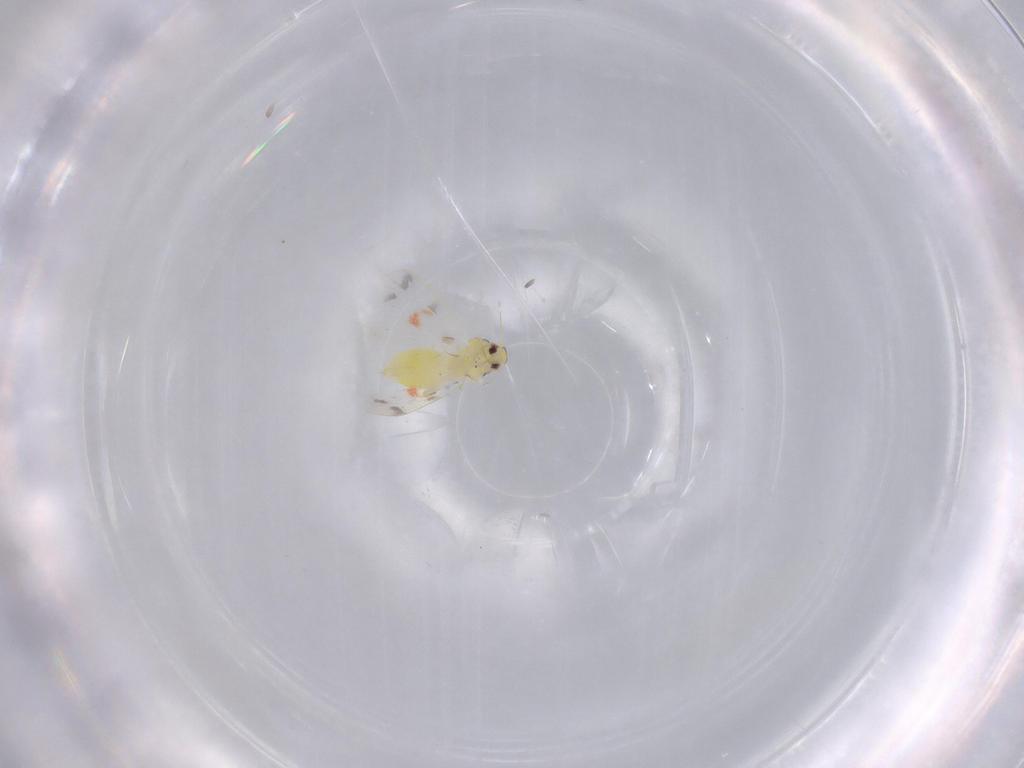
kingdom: Animalia
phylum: Arthropoda
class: Insecta
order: Hemiptera
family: Aleyrodidae
